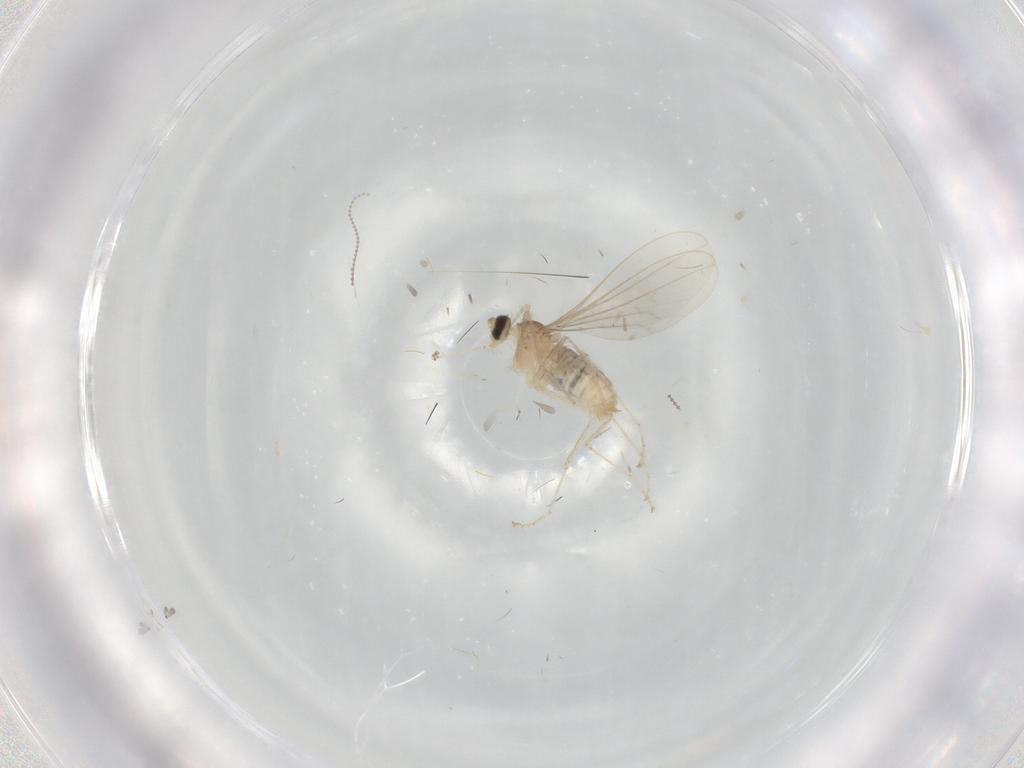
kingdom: Animalia
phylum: Arthropoda
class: Insecta
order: Diptera
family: Cecidomyiidae
